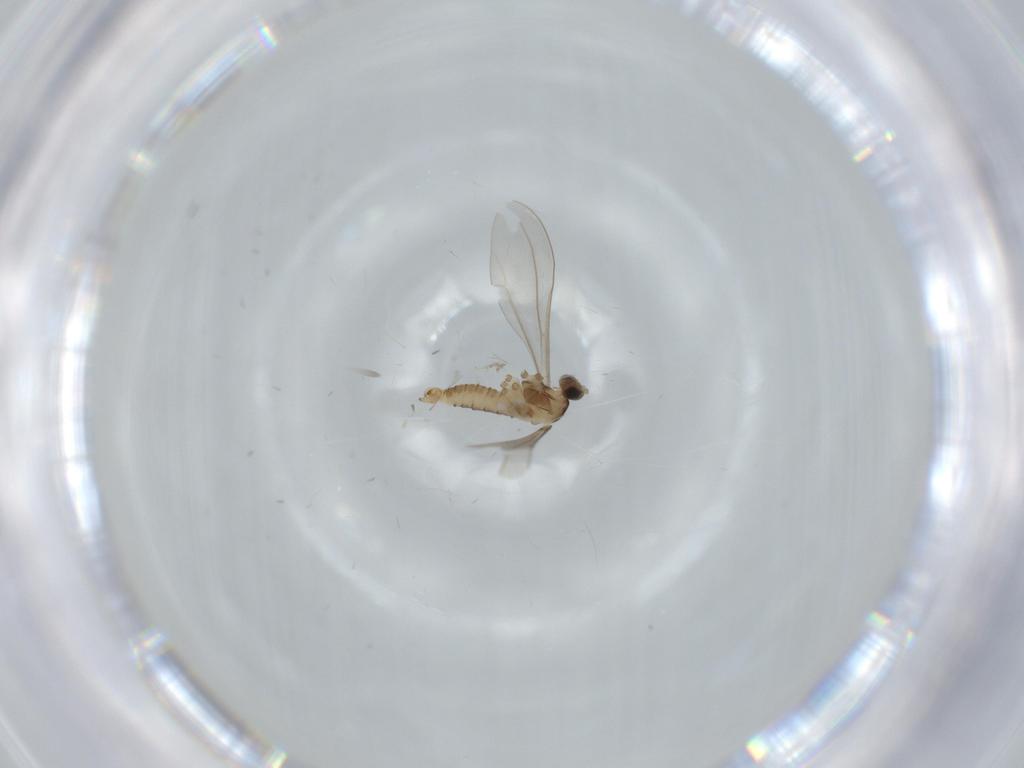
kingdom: Animalia
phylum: Arthropoda
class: Insecta
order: Diptera
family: Cecidomyiidae
